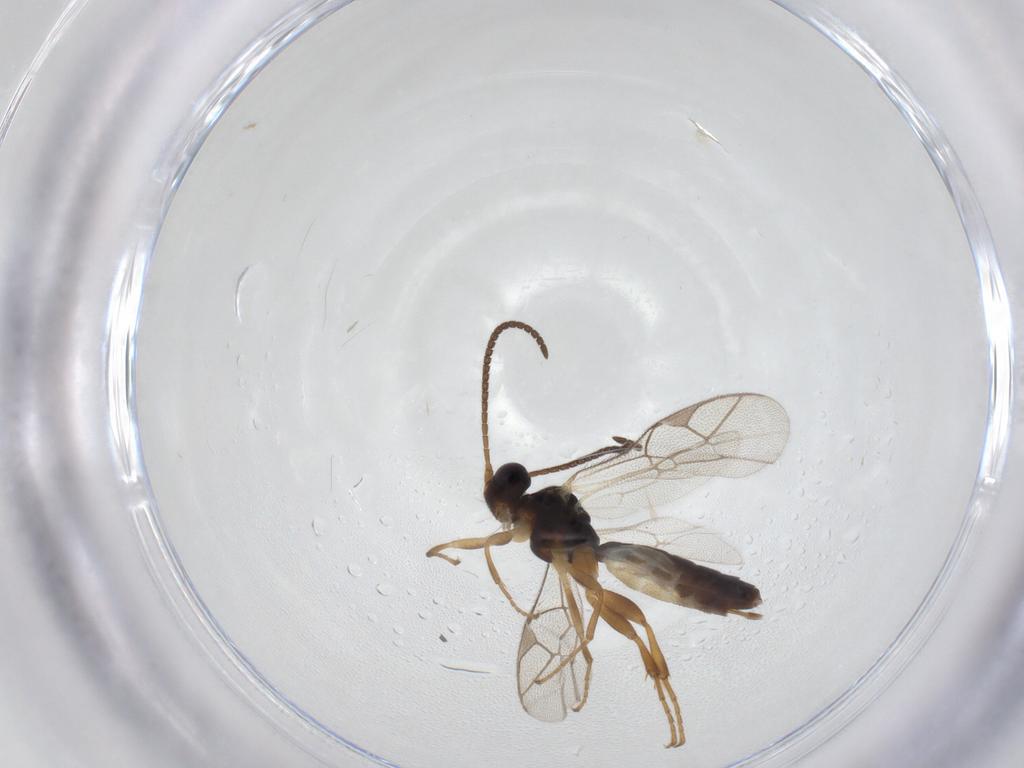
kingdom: Animalia
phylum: Arthropoda
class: Insecta
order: Hymenoptera
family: Ichneumonidae
